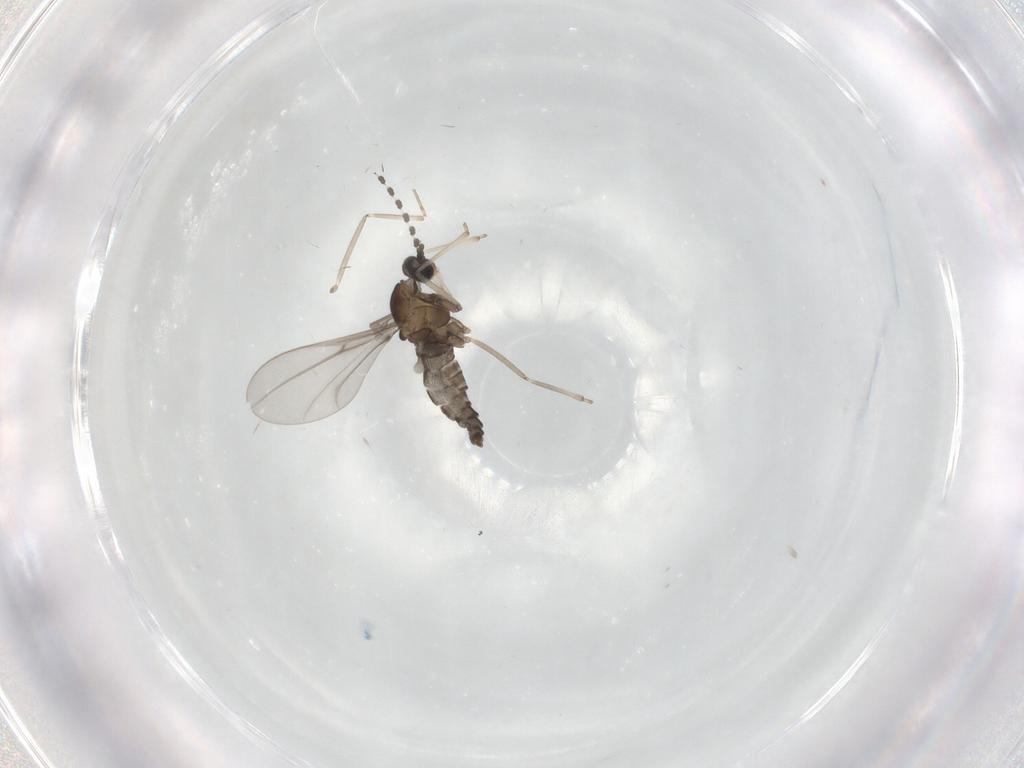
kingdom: Animalia
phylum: Arthropoda
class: Insecta
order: Diptera
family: Cecidomyiidae
